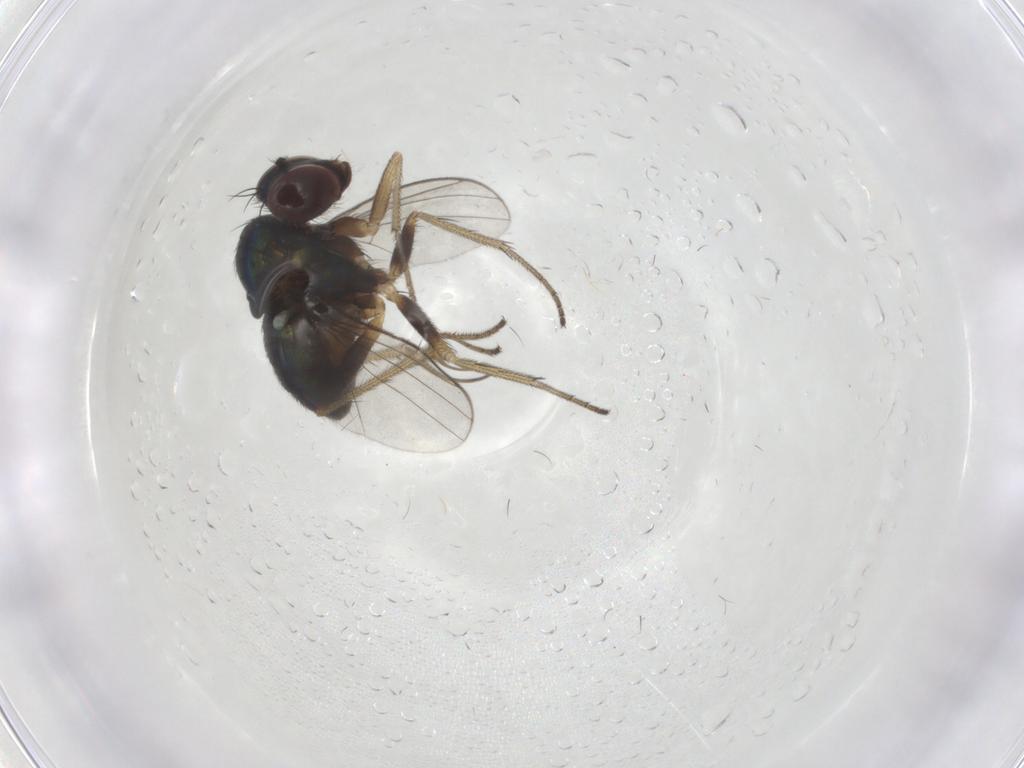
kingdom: Animalia
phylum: Arthropoda
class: Insecta
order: Diptera
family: Dolichopodidae
